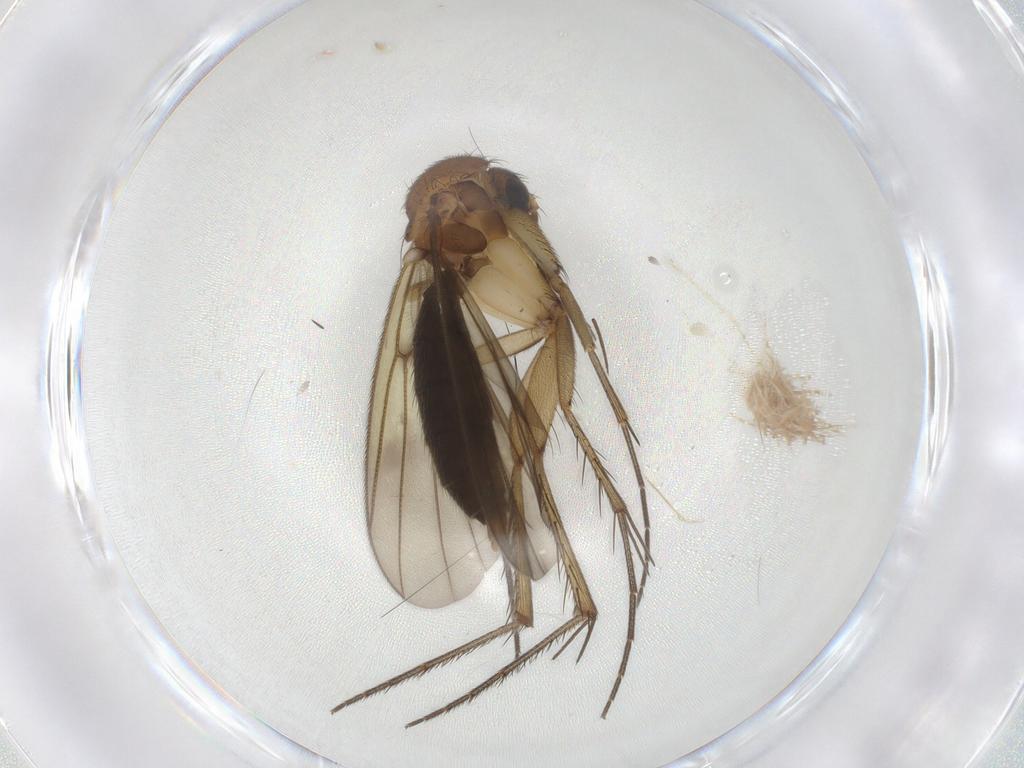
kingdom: Animalia
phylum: Arthropoda
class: Insecta
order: Diptera
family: Mycetophilidae
